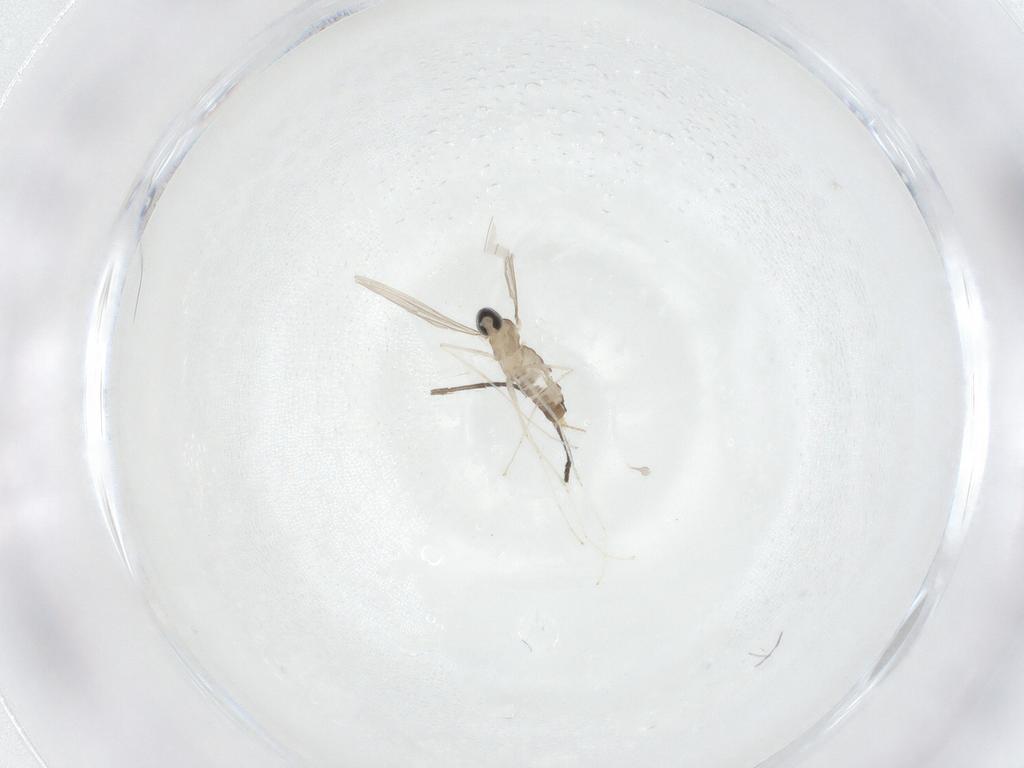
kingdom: Animalia
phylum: Arthropoda
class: Insecta
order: Diptera
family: Cecidomyiidae
